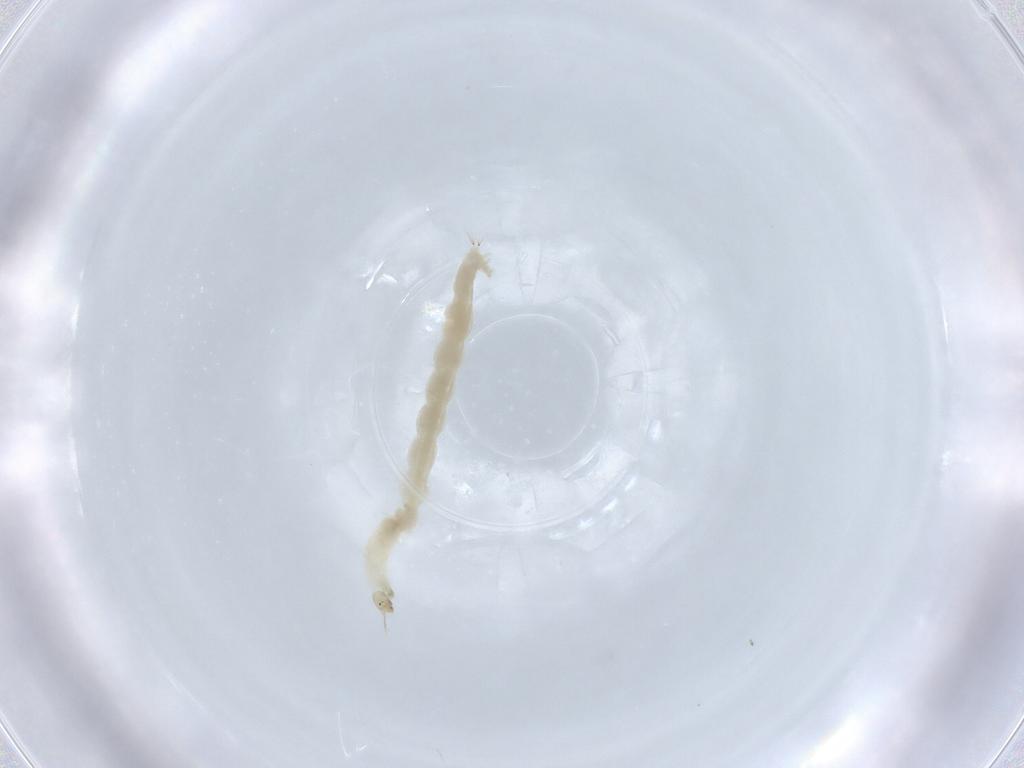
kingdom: Animalia
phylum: Arthropoda
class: Insecta
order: Diptera
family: Chironomidae
